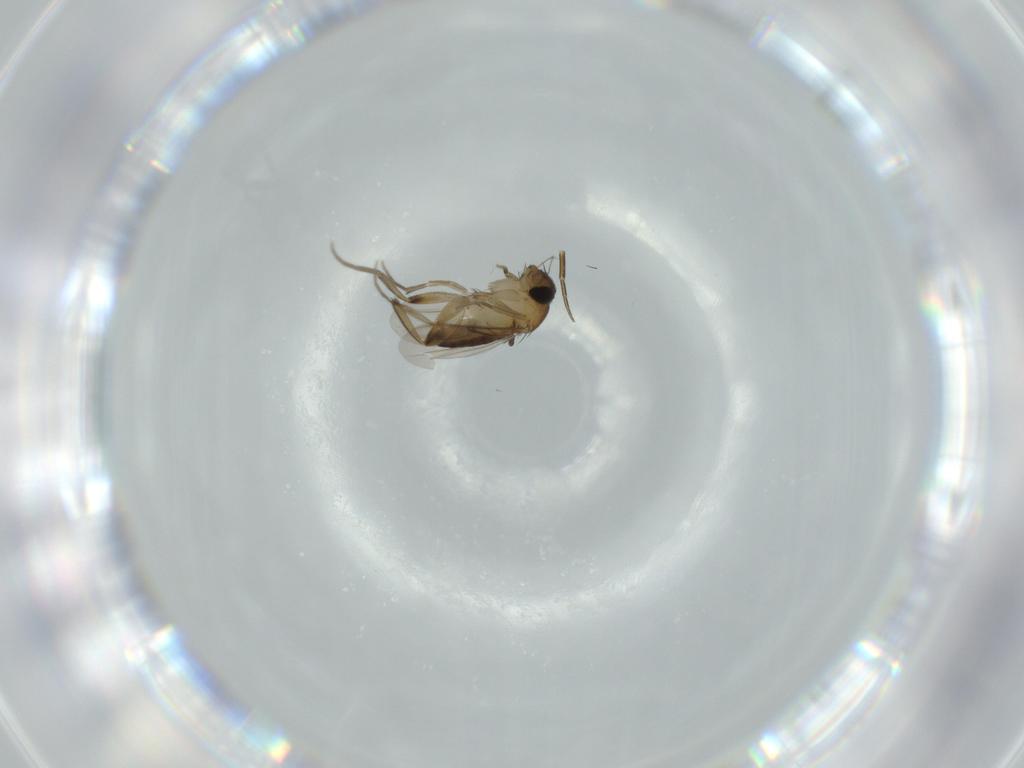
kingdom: Animalia
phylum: Arthropoda
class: Insecta
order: Diptera
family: Phoridae
